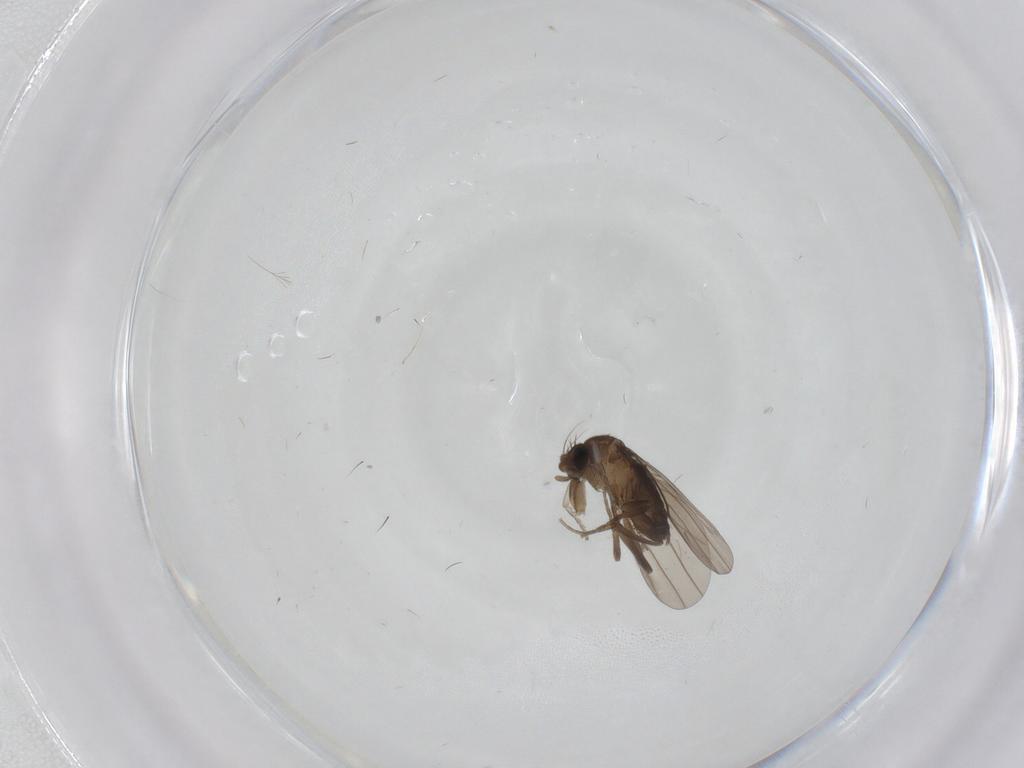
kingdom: Animalia
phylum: Arthropoda
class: Insecta
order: Diptera
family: Ceratopogonidae
